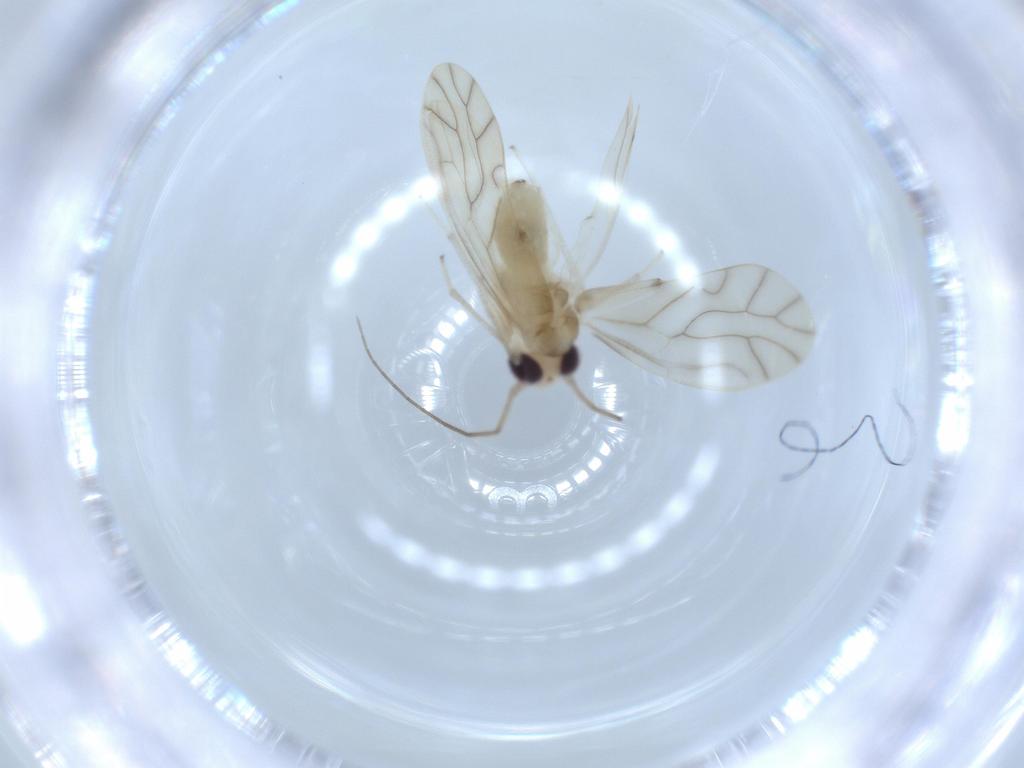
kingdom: Animalia
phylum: Arthropoda
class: Insecta
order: Psocodea
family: Caeciliusidae
